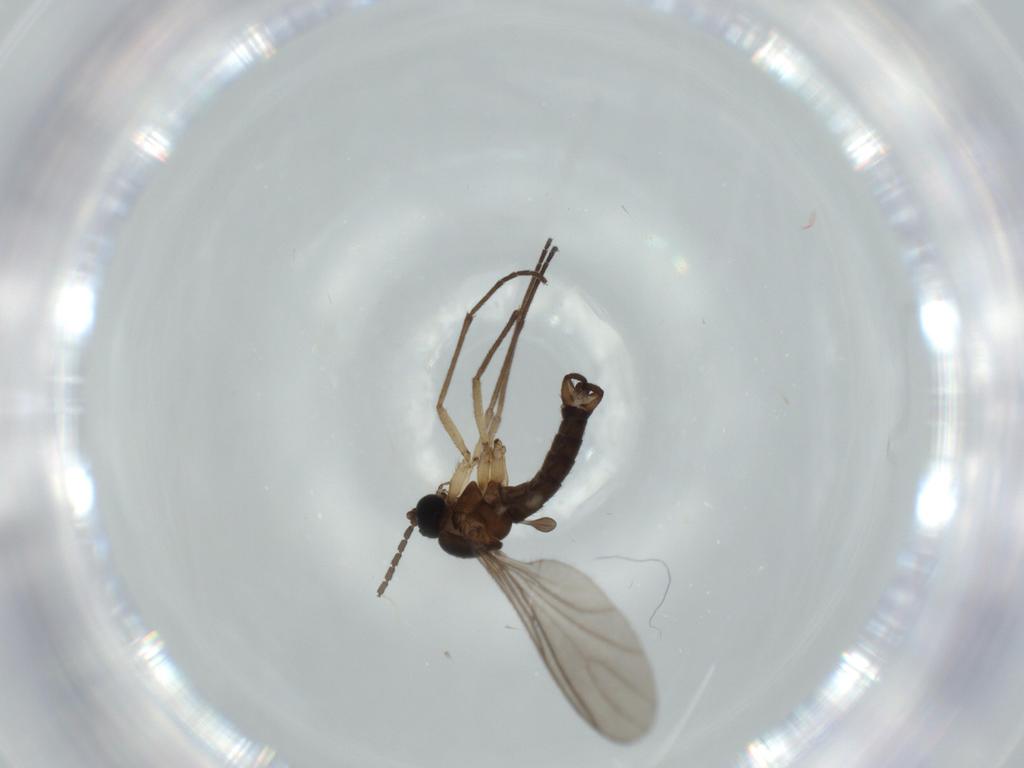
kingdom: Animalia
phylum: Arthropoda
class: Insecta
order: Diptera
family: Sciaridae
